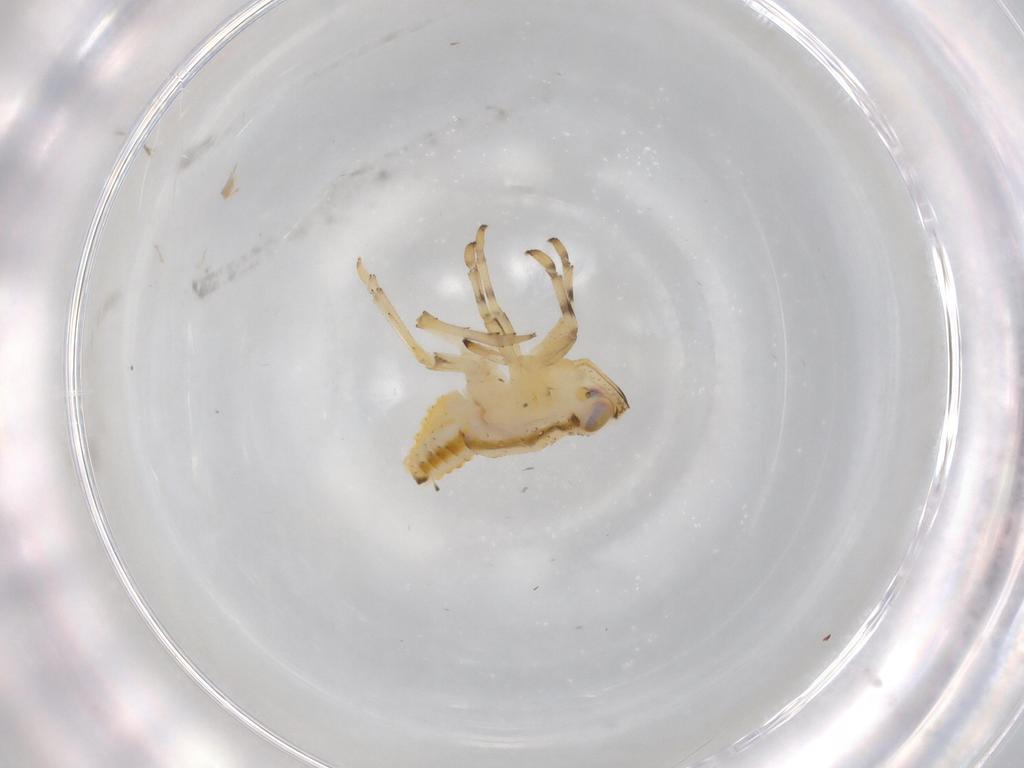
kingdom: Animalia
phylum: Arthropoda
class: Insecta
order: Hemiptera
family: Issidae
